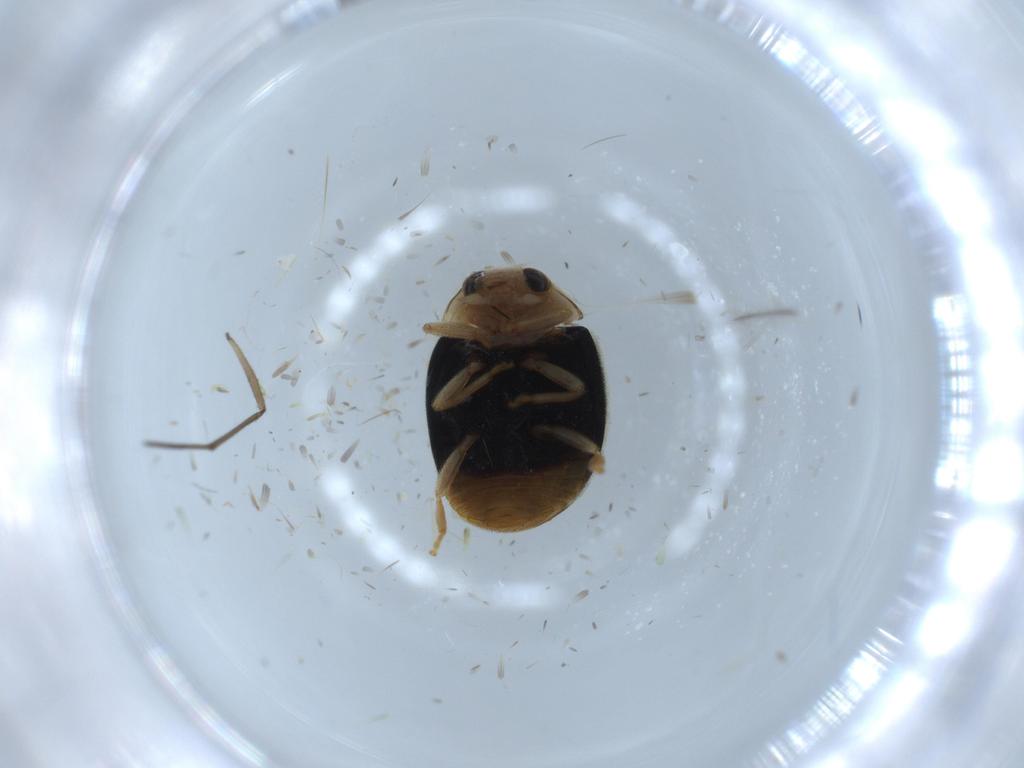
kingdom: Animalia
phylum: Arthropoda
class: Insecta
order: Coleoptera
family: Coccinellidae
